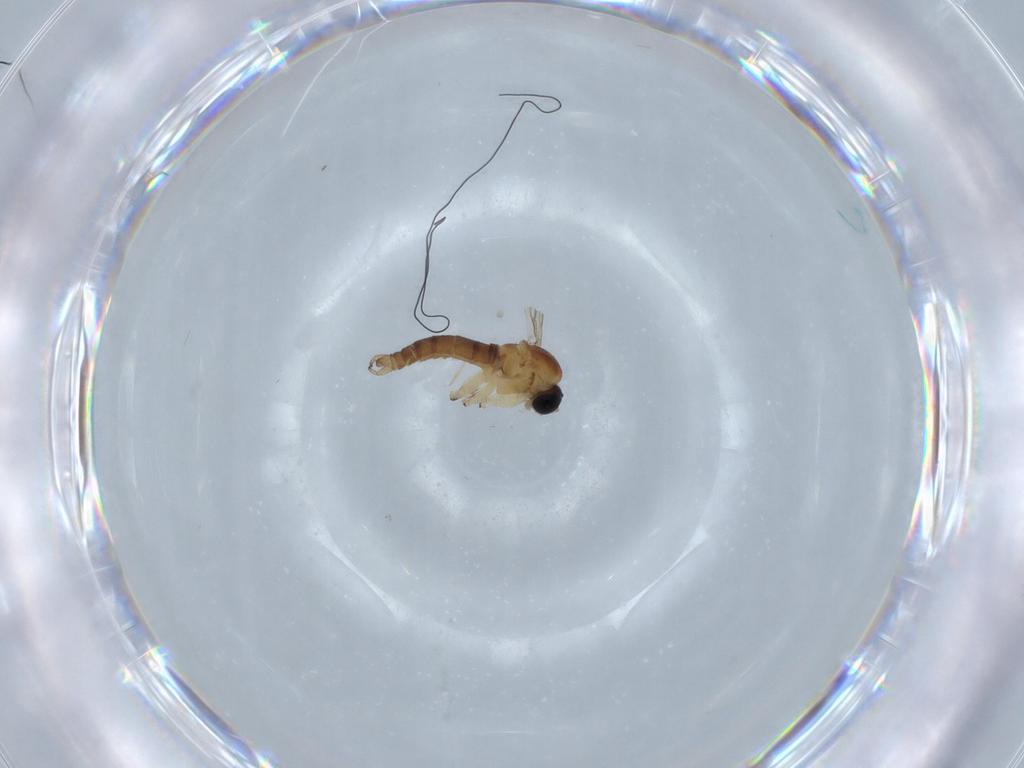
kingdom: Animalia
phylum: Arthropoda
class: Insecta
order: Diptera
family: Sciaridae
